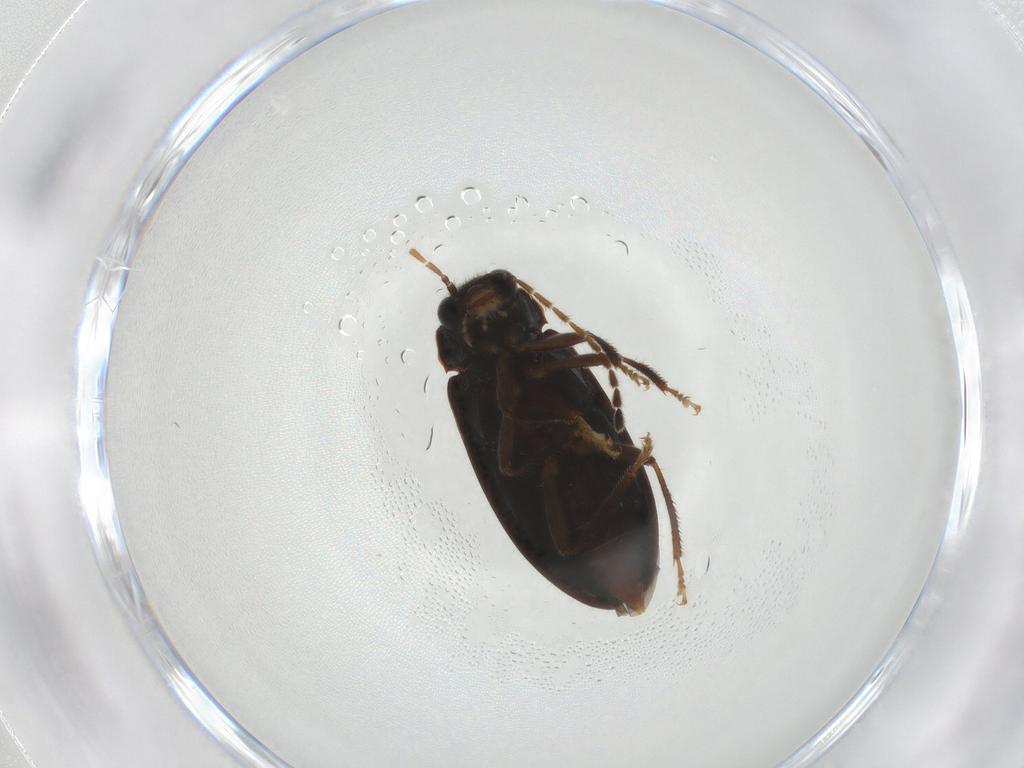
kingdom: Animalia
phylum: Arthropoda
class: Insecta
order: Coleoptera
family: Ptilodactylidae
